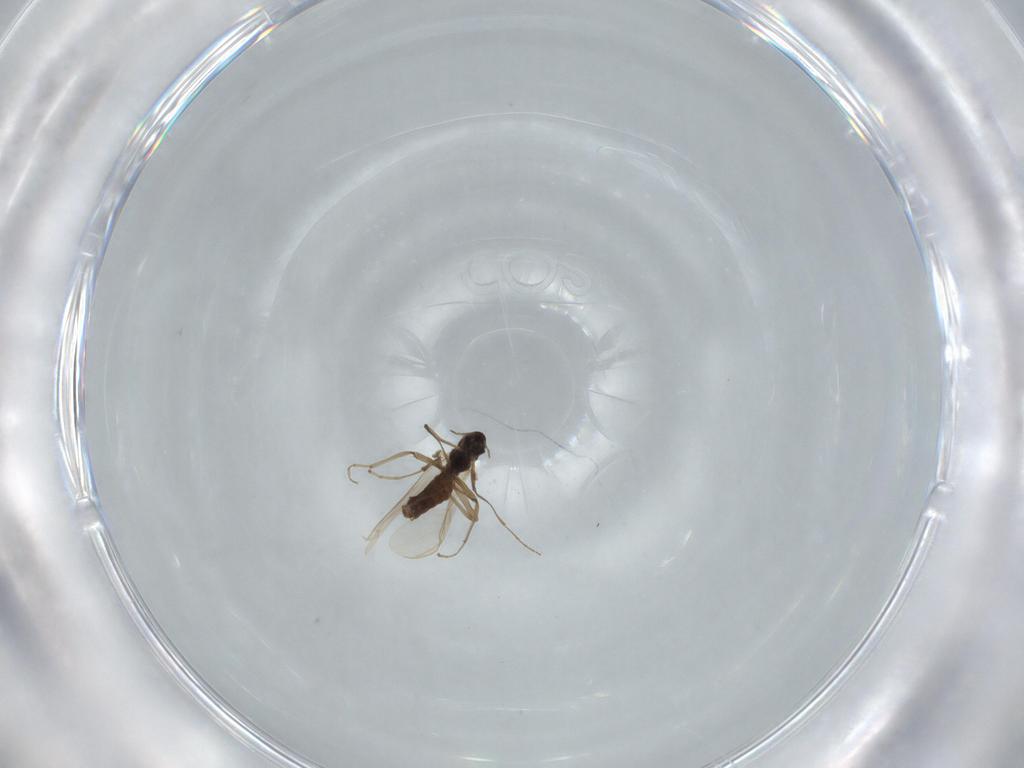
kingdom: Animalia
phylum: Arthropoda
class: Insecta
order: Diptera
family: Chironomidae
